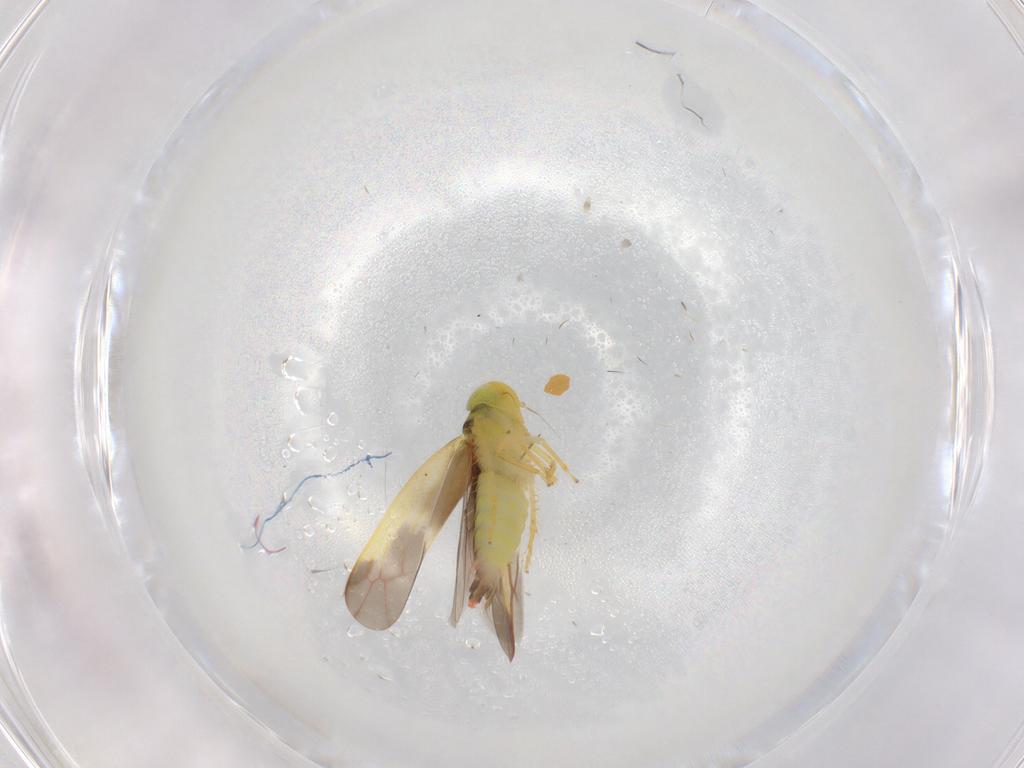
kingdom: Animalia
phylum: Arthropoda
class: Insecta
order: Hemiptera
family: Cicadellidae
